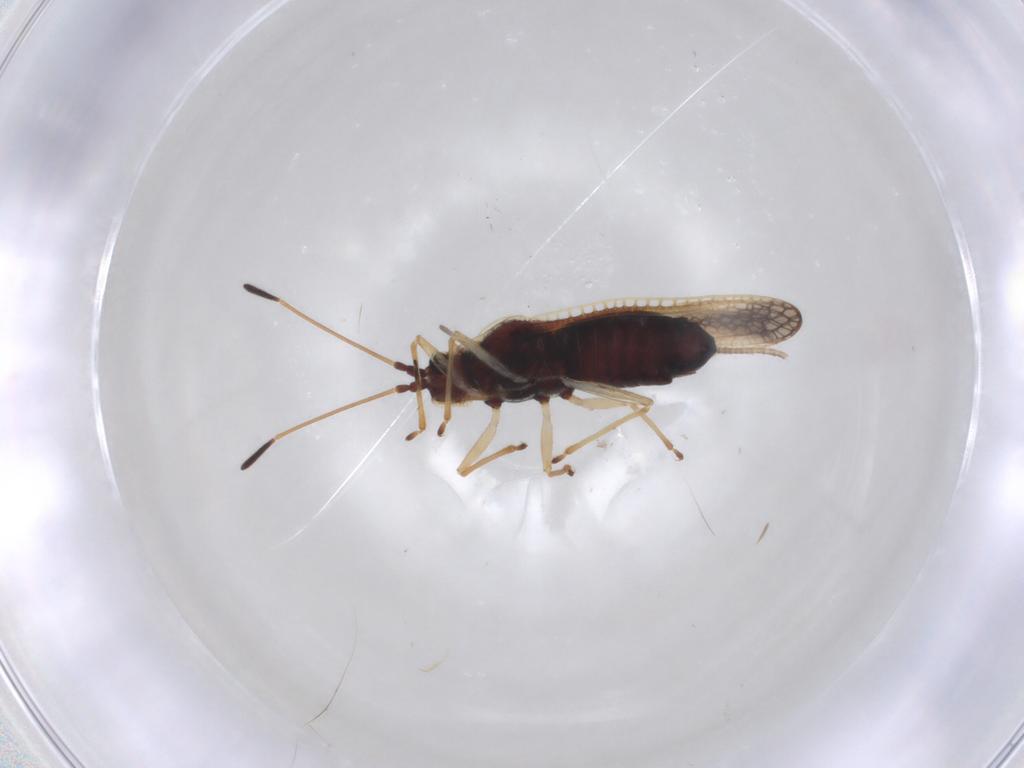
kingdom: Animalia
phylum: Arthropoda
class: Insecta
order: Hemiptera
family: Tingidae
